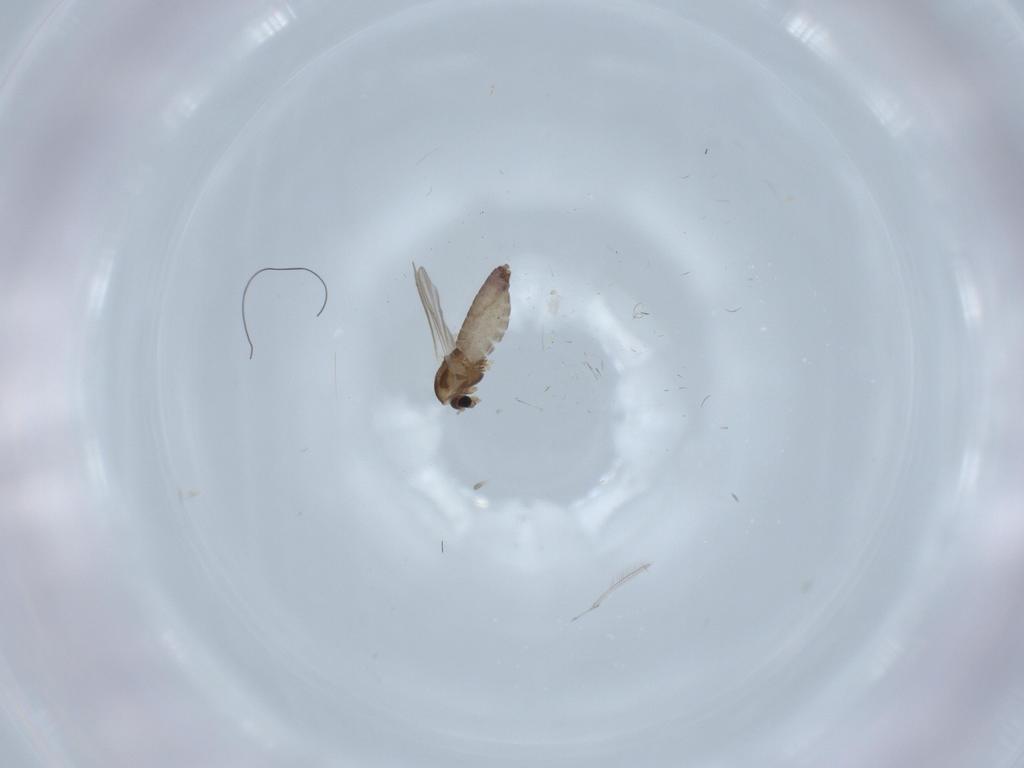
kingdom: Animalia
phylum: Arthropoda
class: Insecta
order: Diptera
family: Chironomidae
